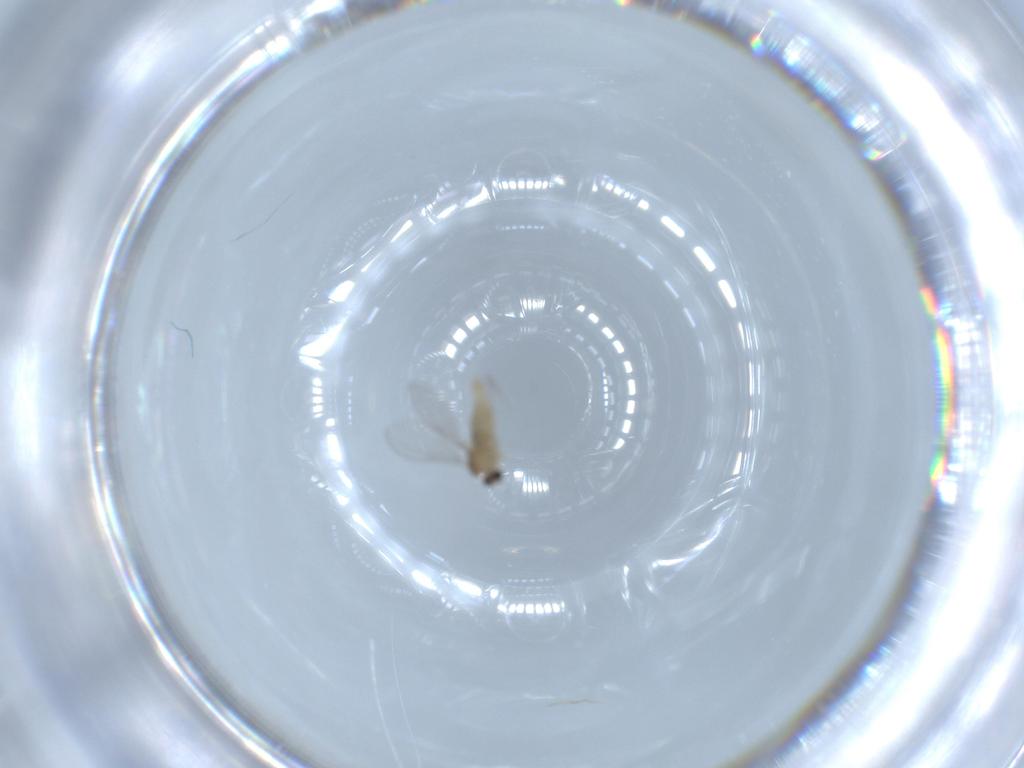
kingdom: Animalia
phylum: Arthropoda
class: Insecta
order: Diptera
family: Cecidomyiidae
